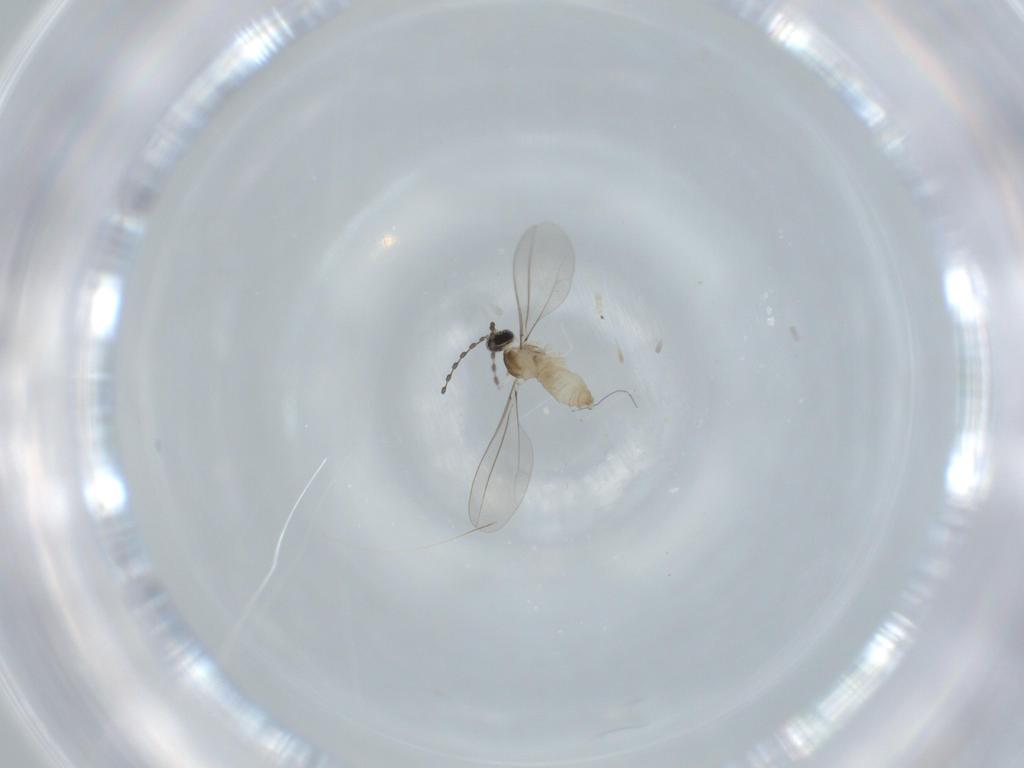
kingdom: Animalia
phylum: Arthropoda
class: Insecta
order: Diptera
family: Cecidomyiidae
